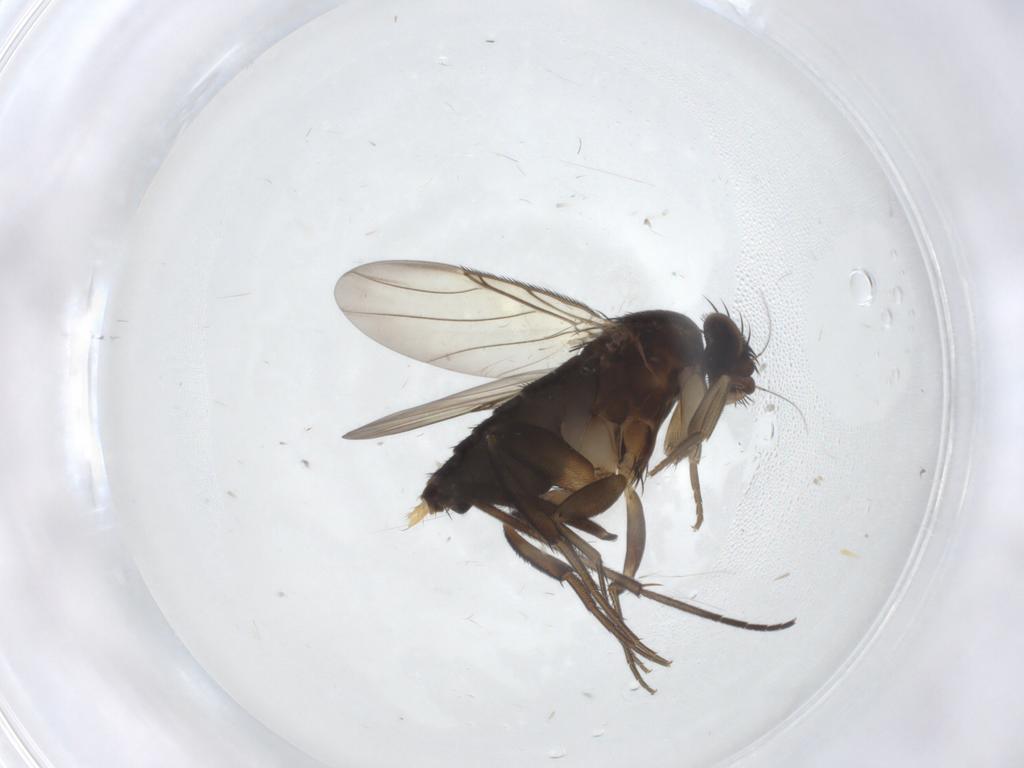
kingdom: Animalia
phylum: Arthropoda
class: Insecta
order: Diptera
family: Phoridae
